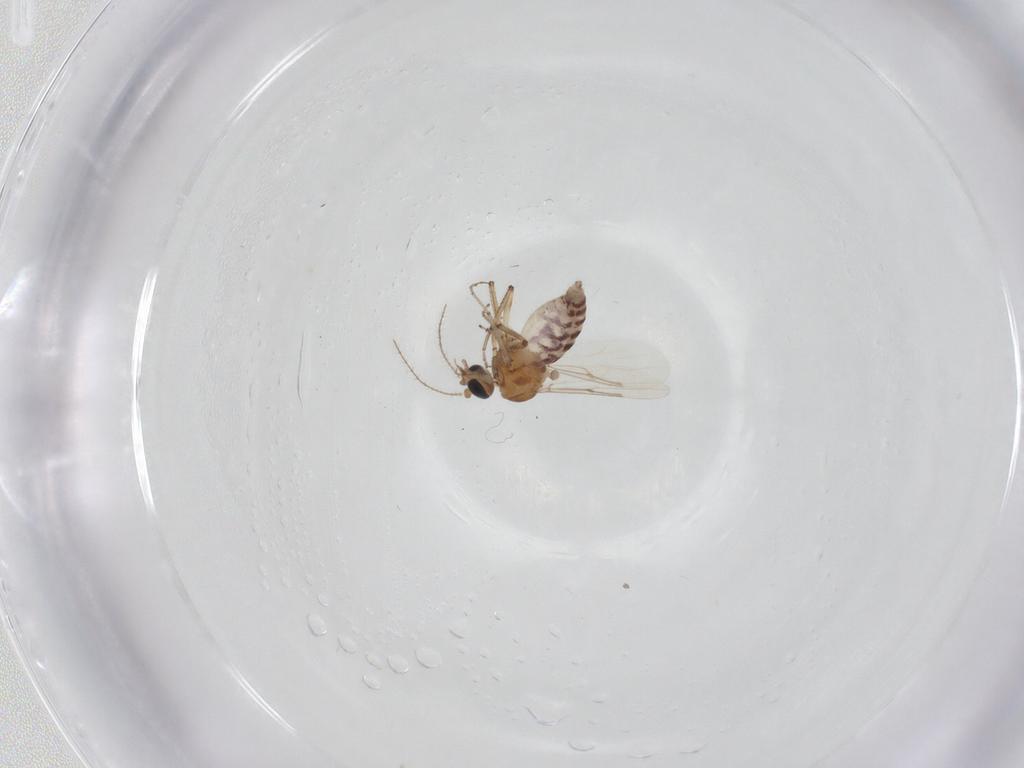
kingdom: Animalia
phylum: Arthropoda
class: Insecta
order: Diptera
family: Ceratopogonidae
